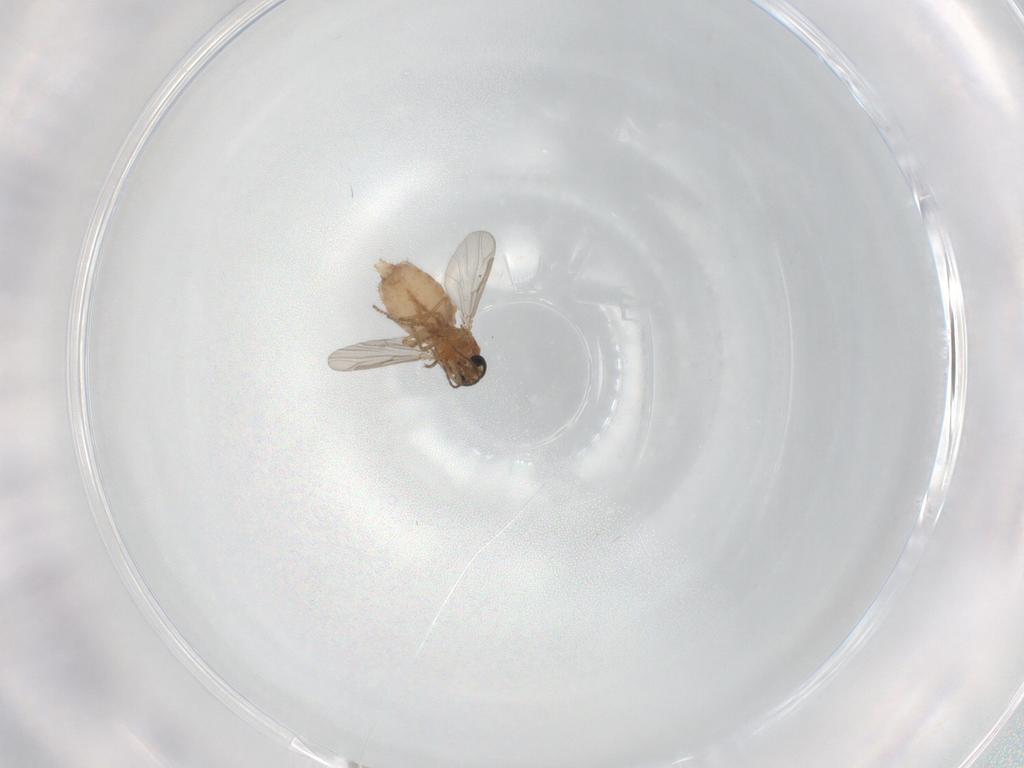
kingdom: Animalia
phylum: Arthropoda
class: Insecta
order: Diptera
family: Ceratopogonidae
